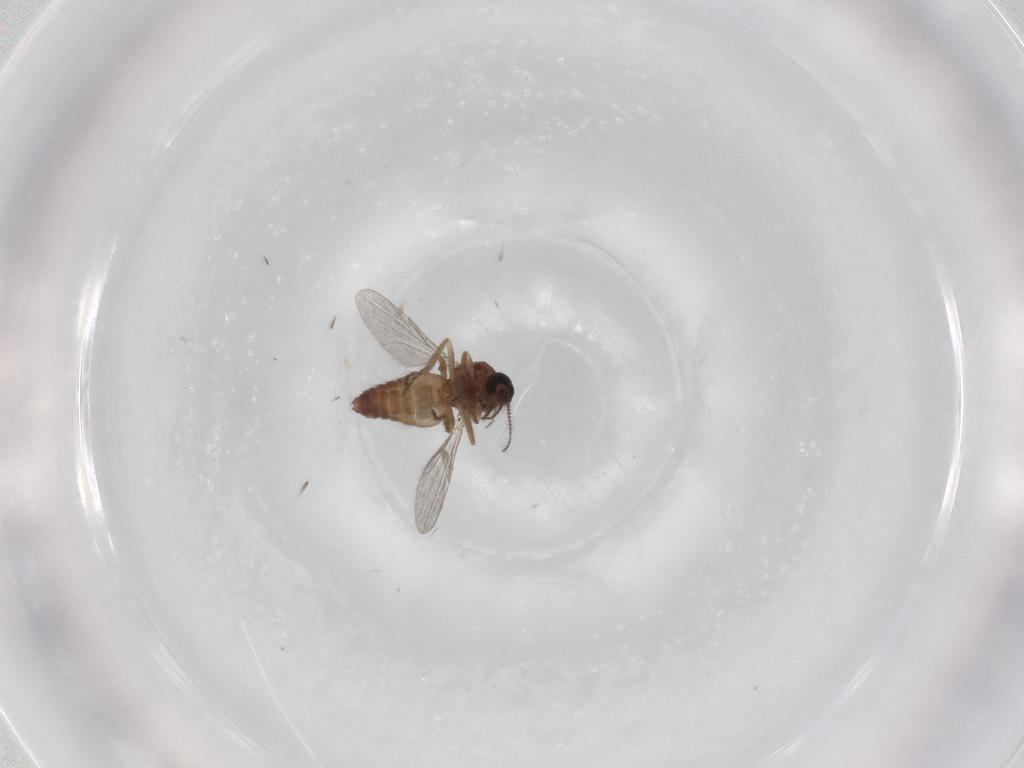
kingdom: Animalia
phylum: Arthropoda
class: Insecta
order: Diptera
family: Ceratopogonidae
